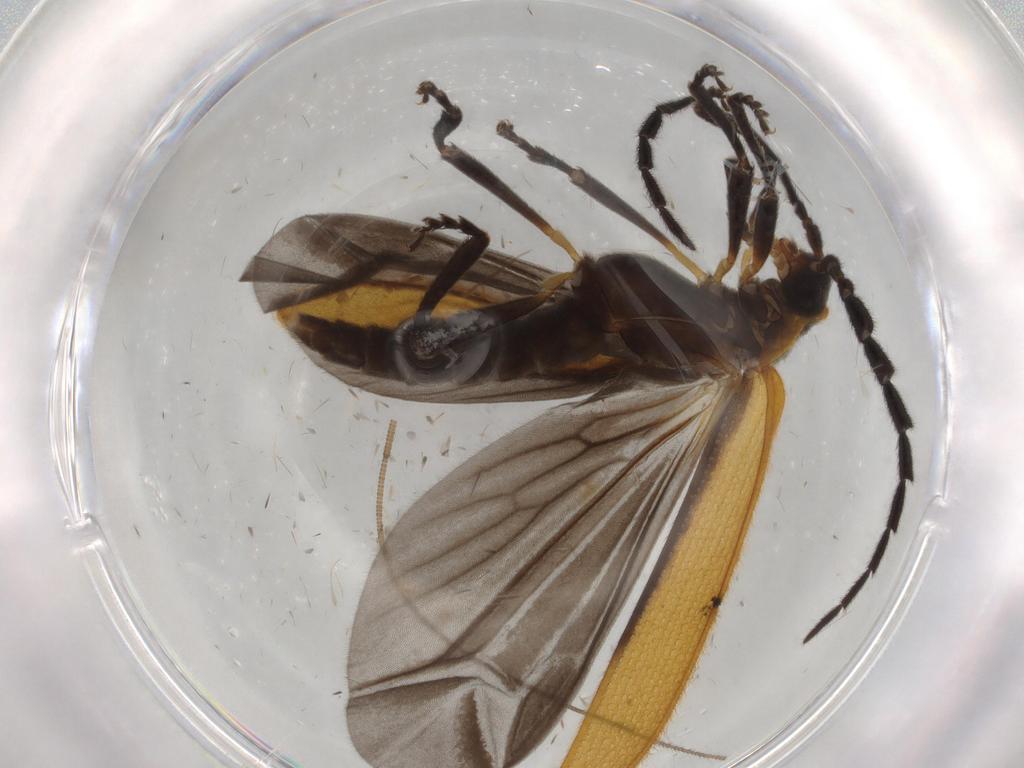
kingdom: Animalia
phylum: Arthropoda
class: Insecta
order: Coleoptera
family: Lycidae
